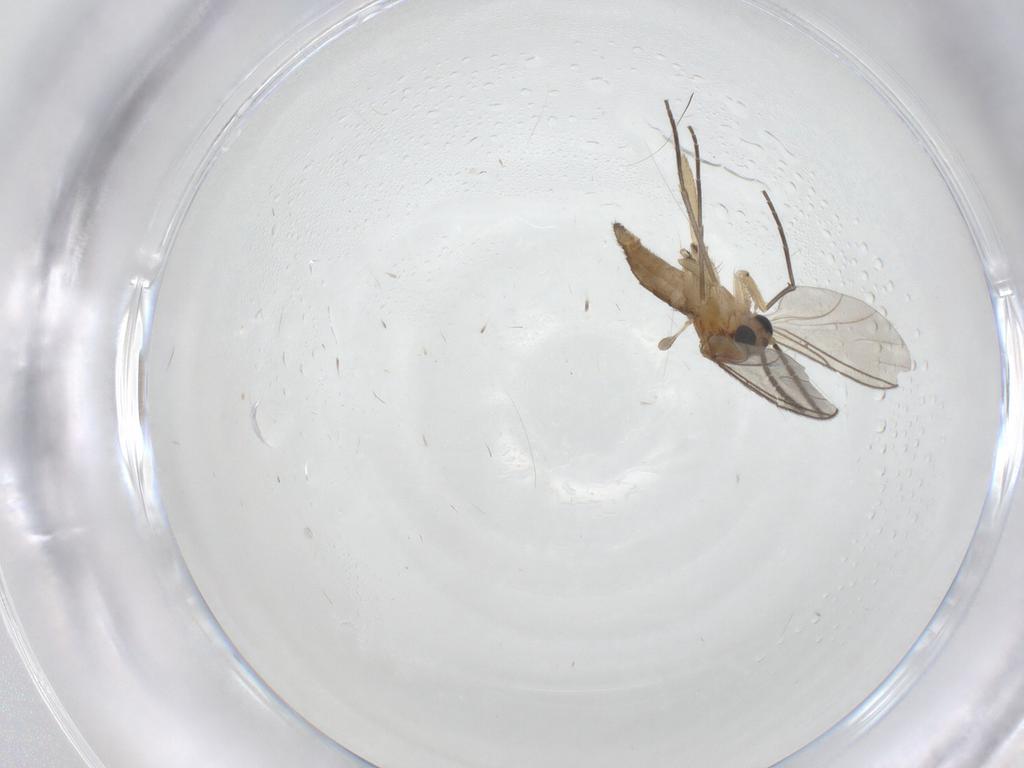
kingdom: Animalia
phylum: Arthropoda
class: Insecta
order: Diptera
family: Sciaridae
